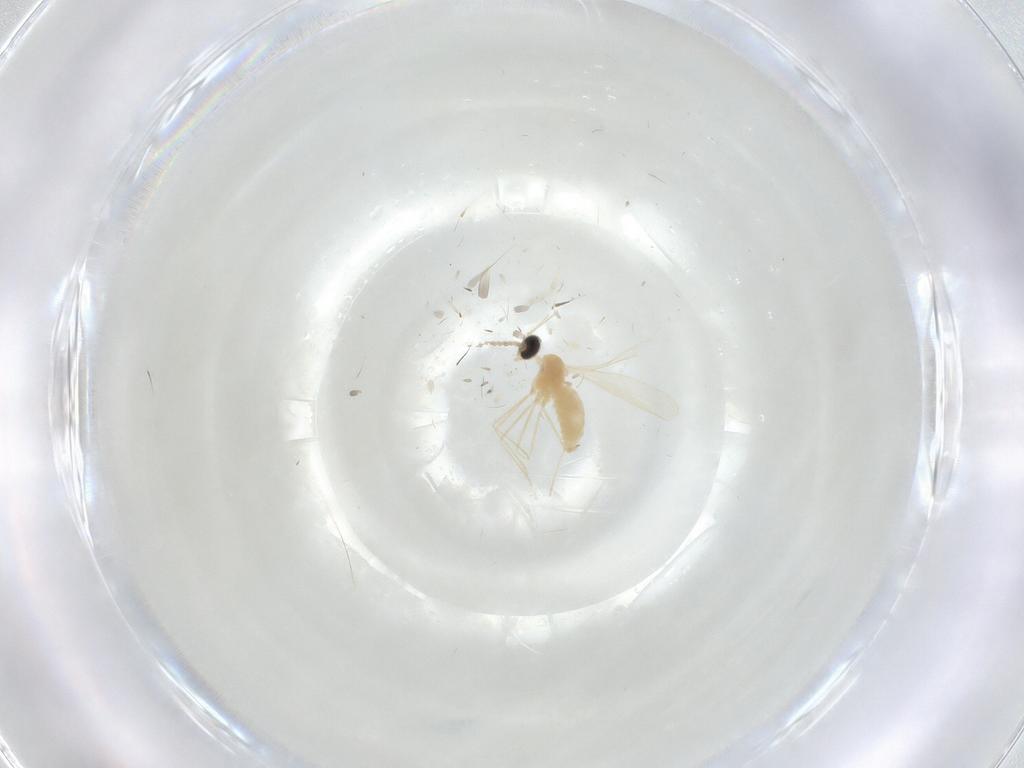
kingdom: Animalia
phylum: Arthropoda
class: Insecta
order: Diptera
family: Cecidomyiidae
